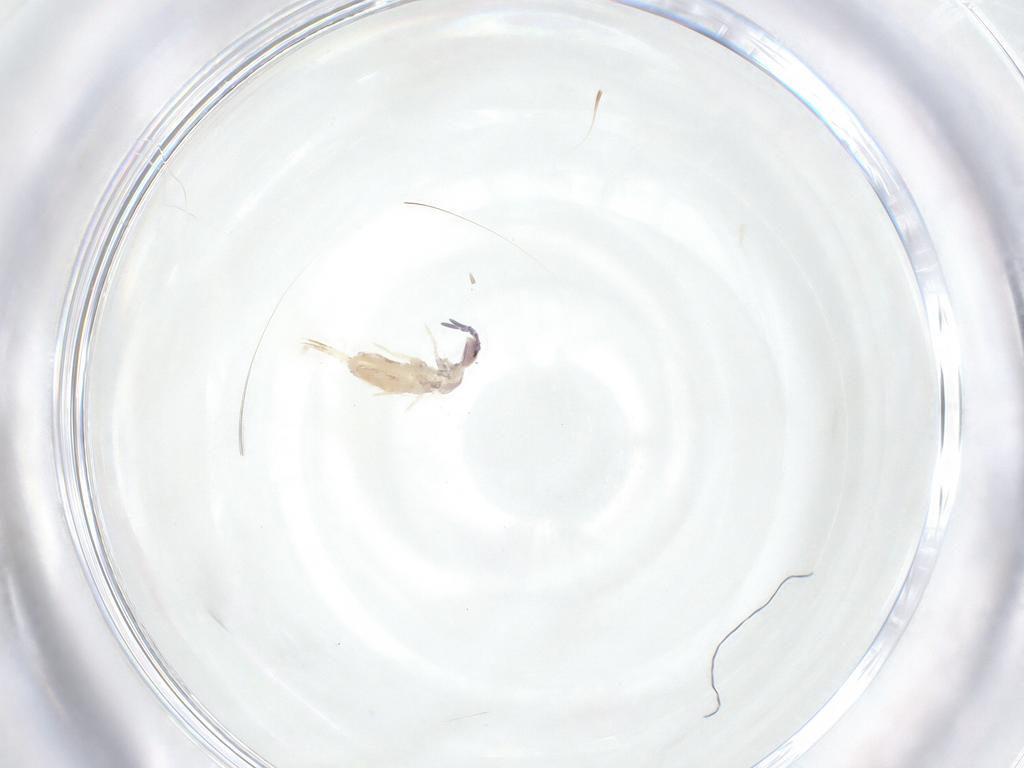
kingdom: Animalia
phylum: Arthropoda
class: Collembola
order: Entomobryomorpha
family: Entomobryidae
